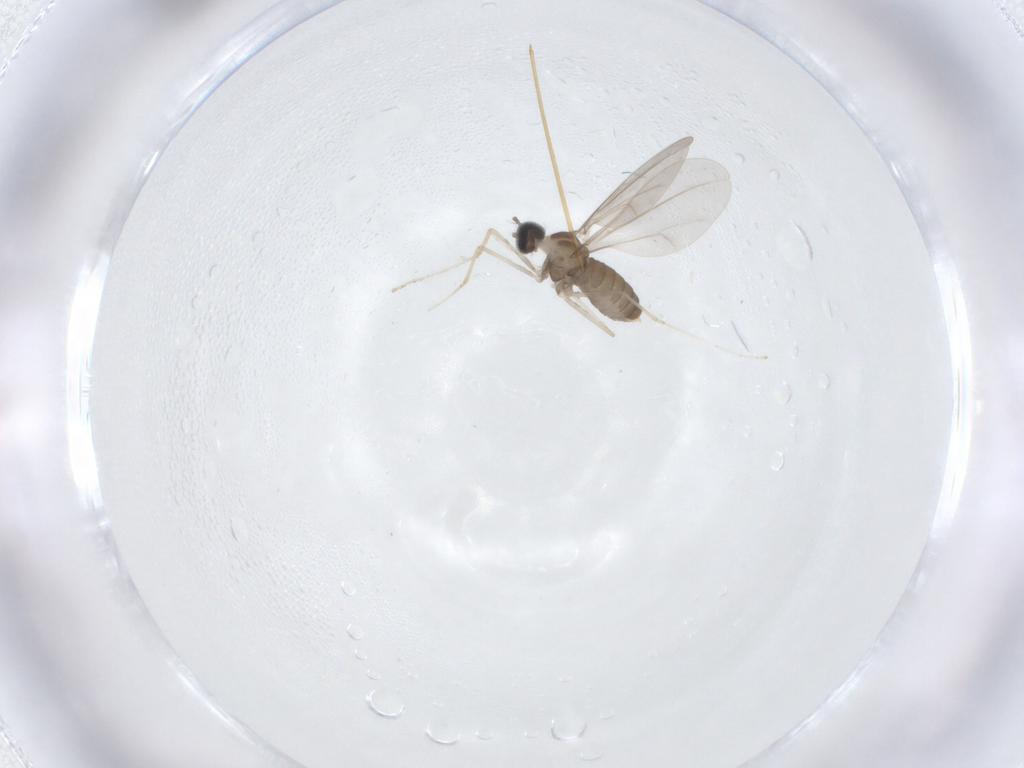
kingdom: Animalia
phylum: Arthropoda
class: Insecta
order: Diptera
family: Cecidomyiidae
